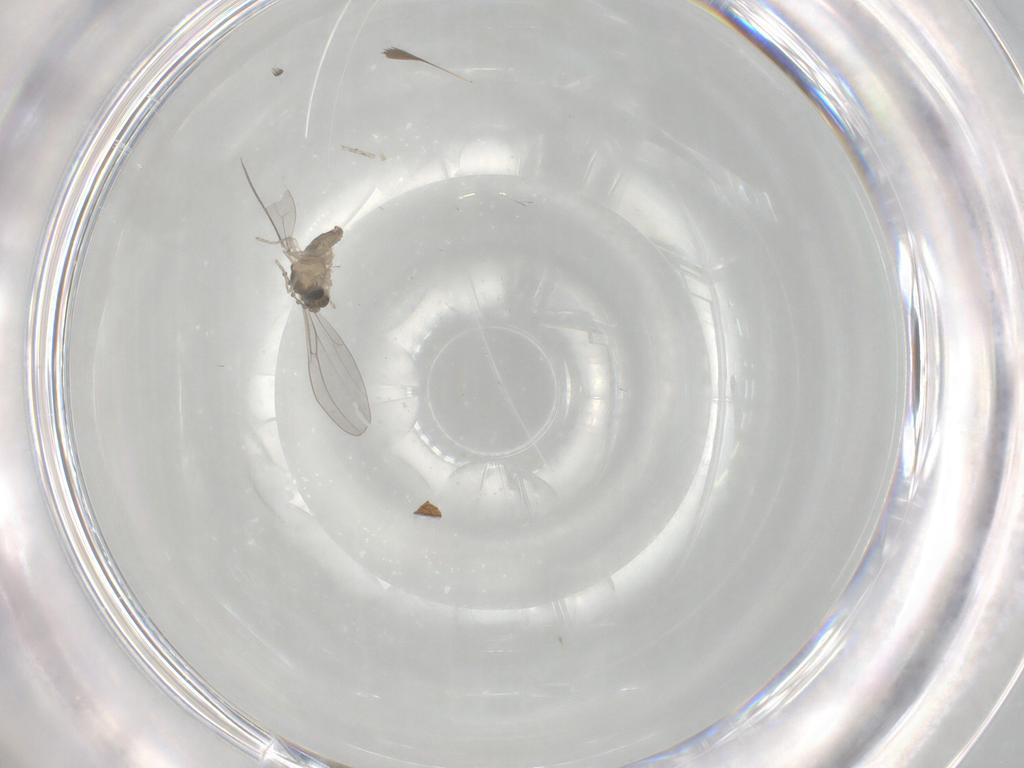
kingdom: Animalia
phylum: Arthropoda
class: Insecta
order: Diptera
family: Cecidomyiidae
